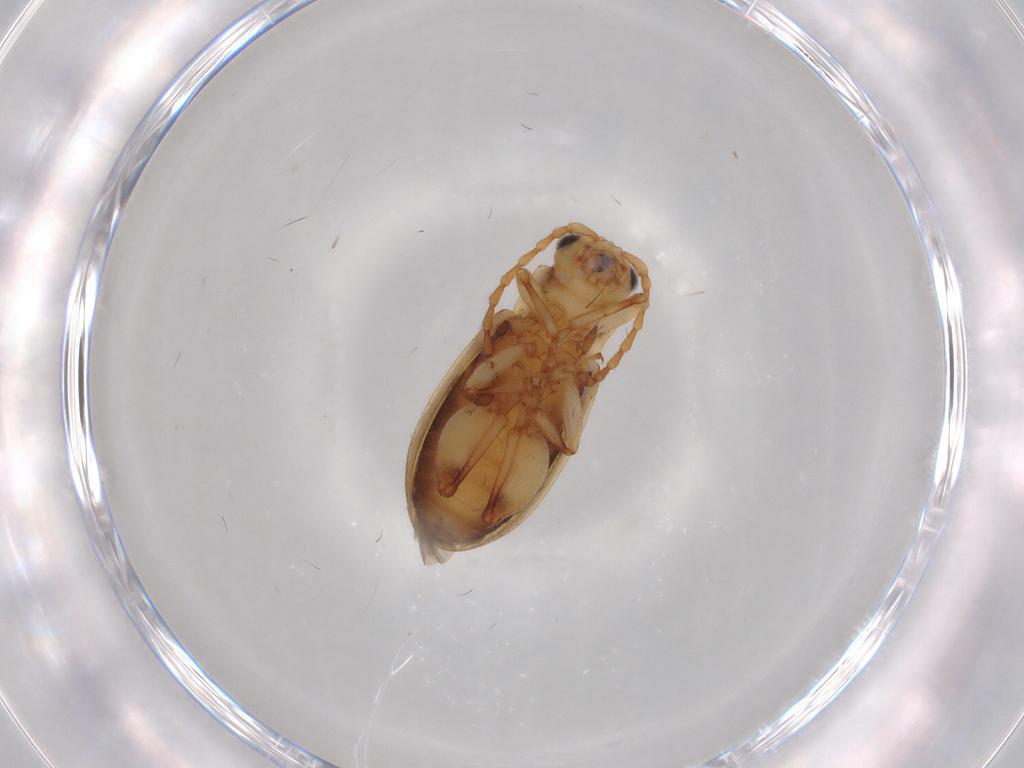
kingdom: Animalia
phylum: Arthropoda
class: Insecta
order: Coleoptera
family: Chrysomelidae
